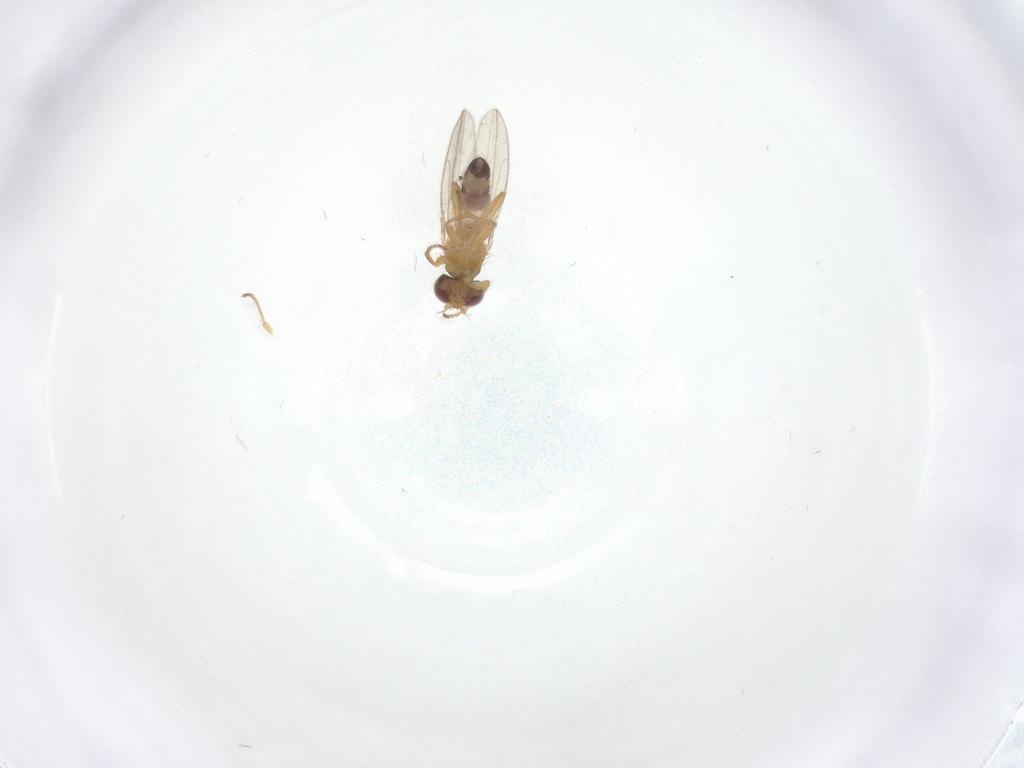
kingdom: Animalia
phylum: Arthropoda
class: Insecta
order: Diptera
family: Periscelididae
